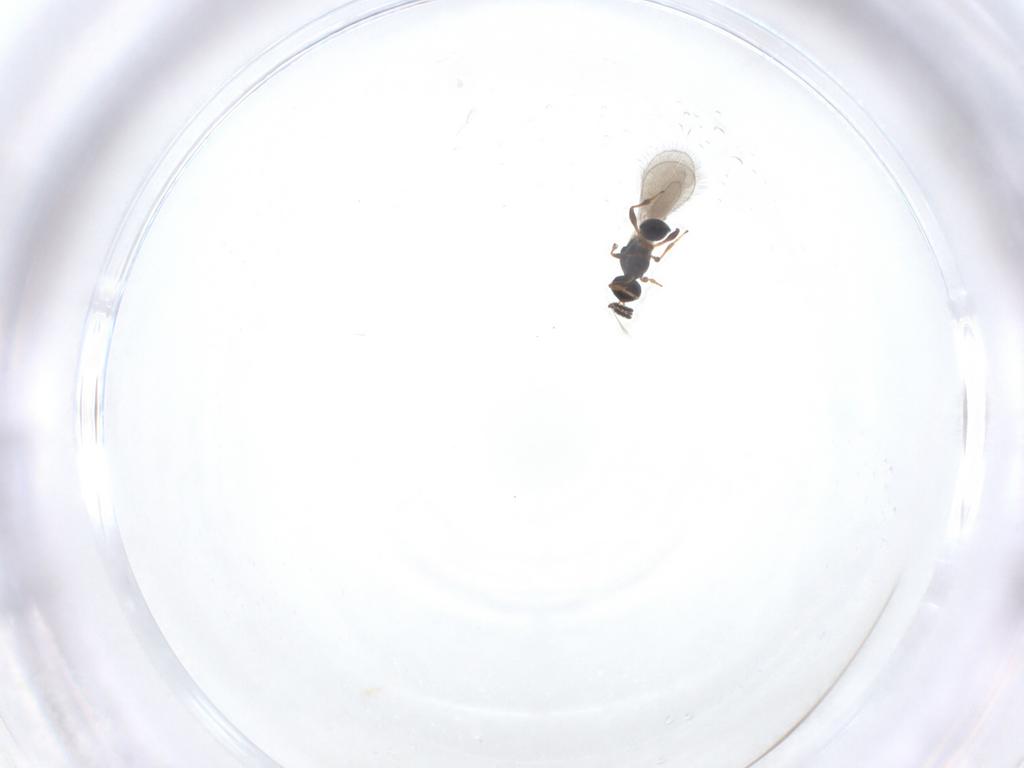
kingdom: Animalia
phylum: Arthropoda
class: Insecta
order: Hymenoptera
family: Platygastridae
